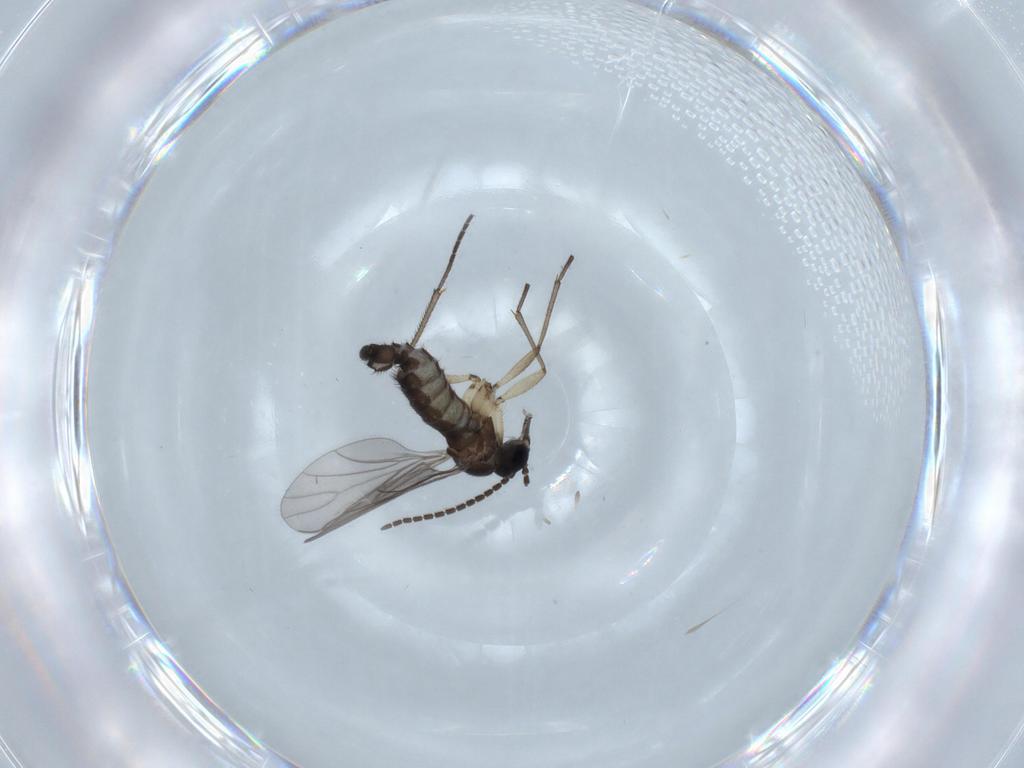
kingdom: Animalia
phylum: Arthropoda
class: Insecta
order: Diptera
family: Sciaridae
